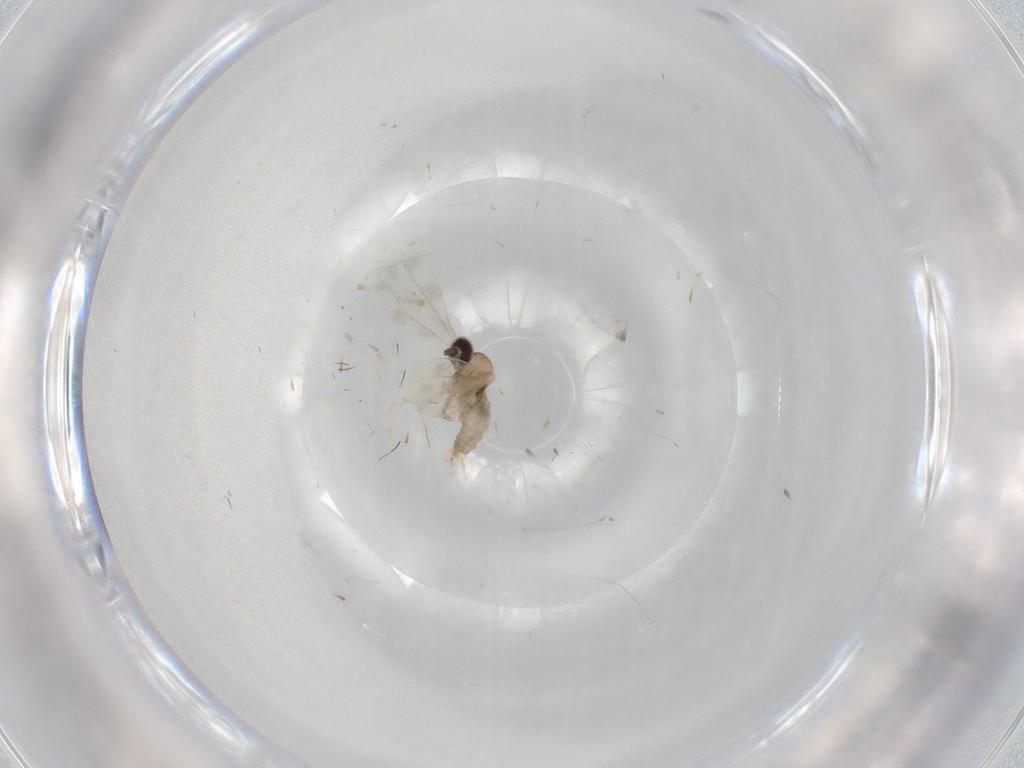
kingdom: Animalia
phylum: Arthropoda
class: Insecta
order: Diptera
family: Cecidomyiidae
